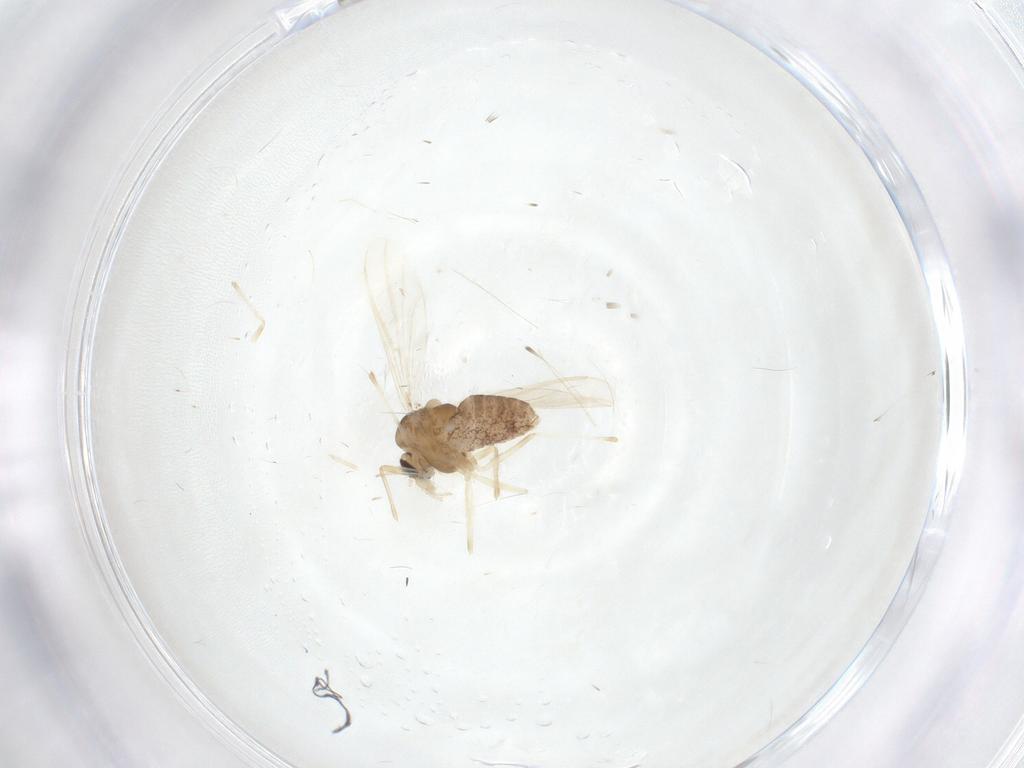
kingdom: Animalia
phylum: Arthropoda
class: Insecta
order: Diptera
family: Chironomidae
